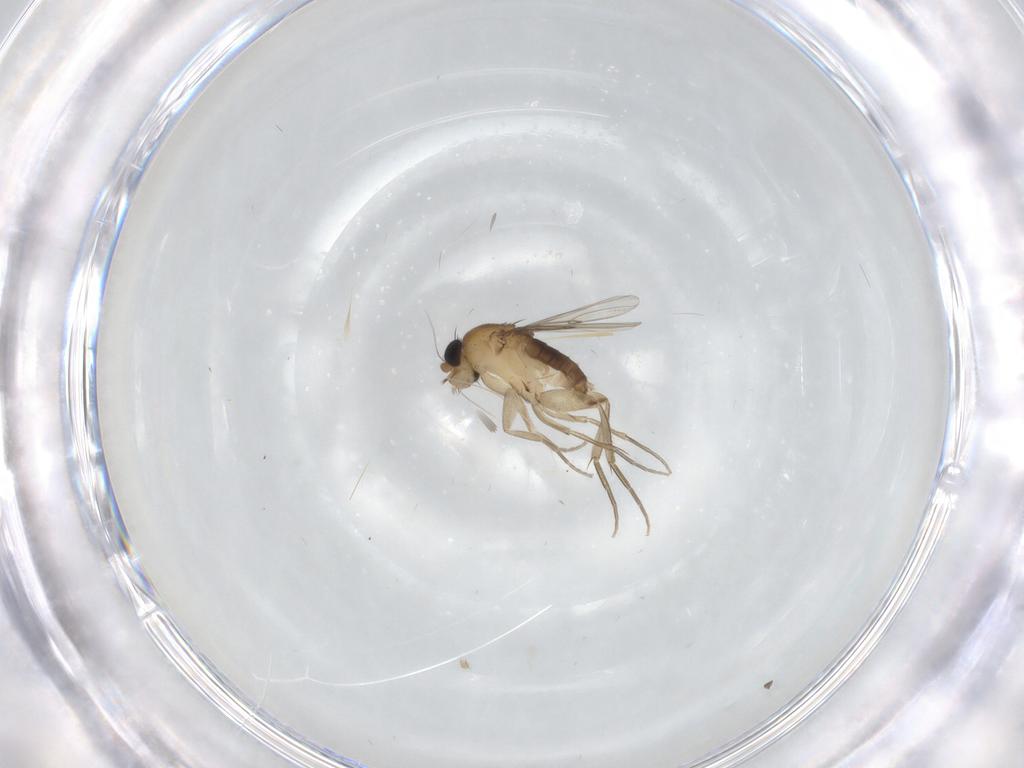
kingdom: Animalia
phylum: Arthropoda
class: Insecta
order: Diptera
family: Phoridae
